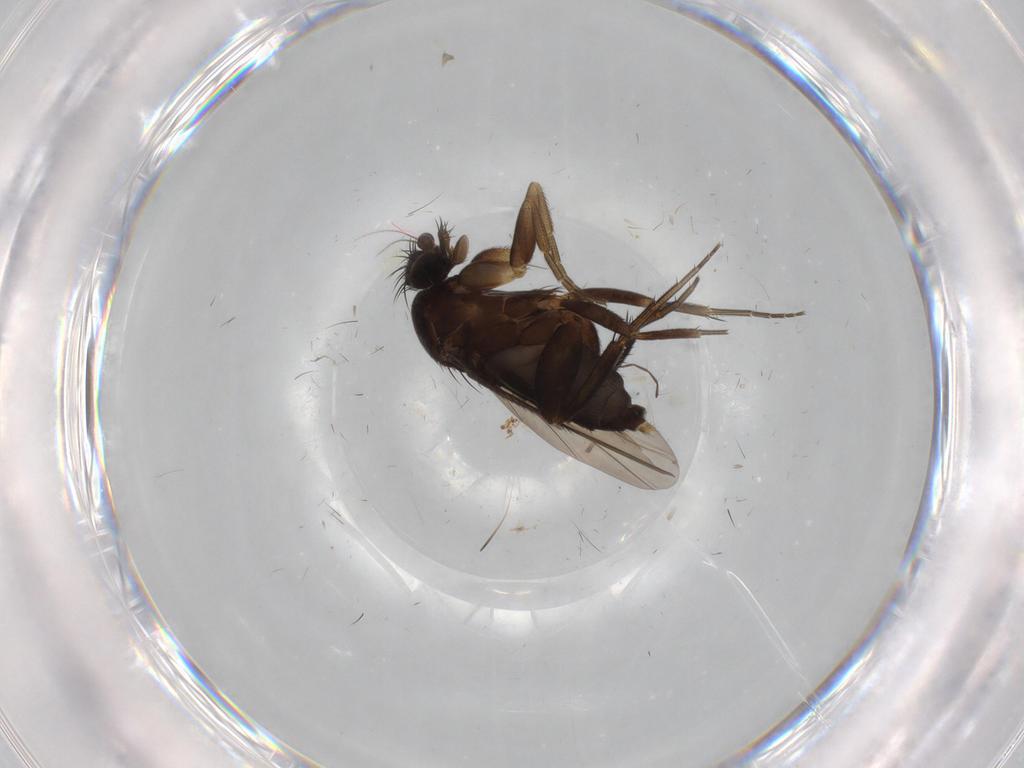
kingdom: Animalia
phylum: Arthropoda
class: Insecta
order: Diptera
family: Phoridae
